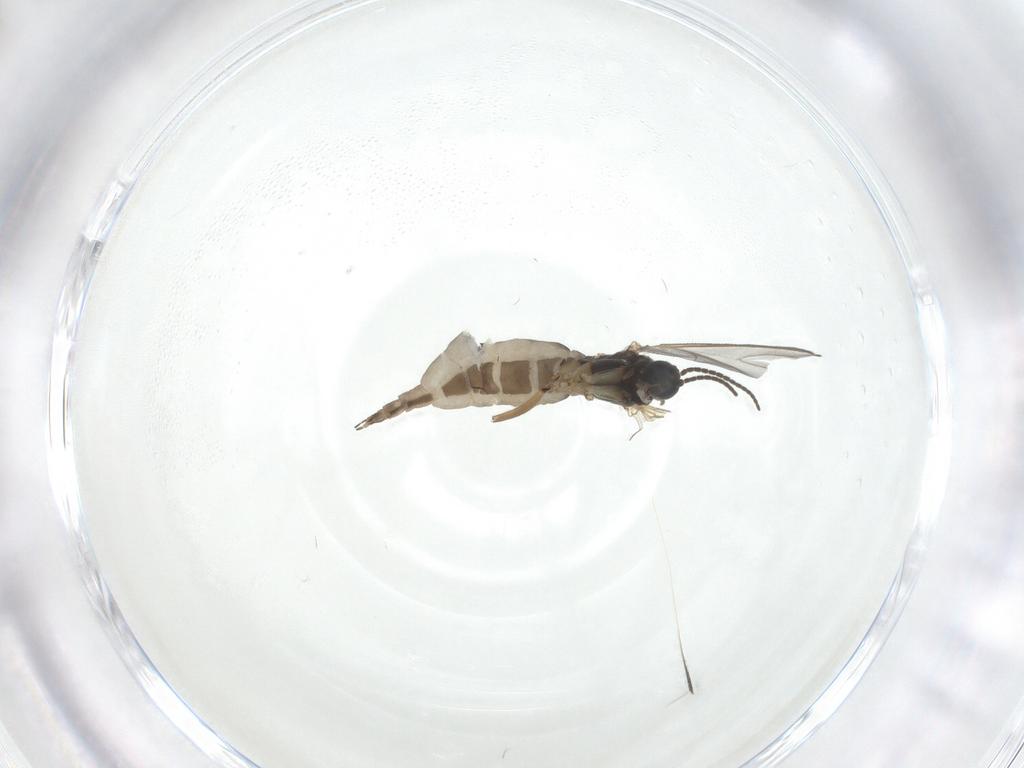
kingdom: Animalia
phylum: Arthropoda
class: Insecta
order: Diptera
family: Sciaridae
